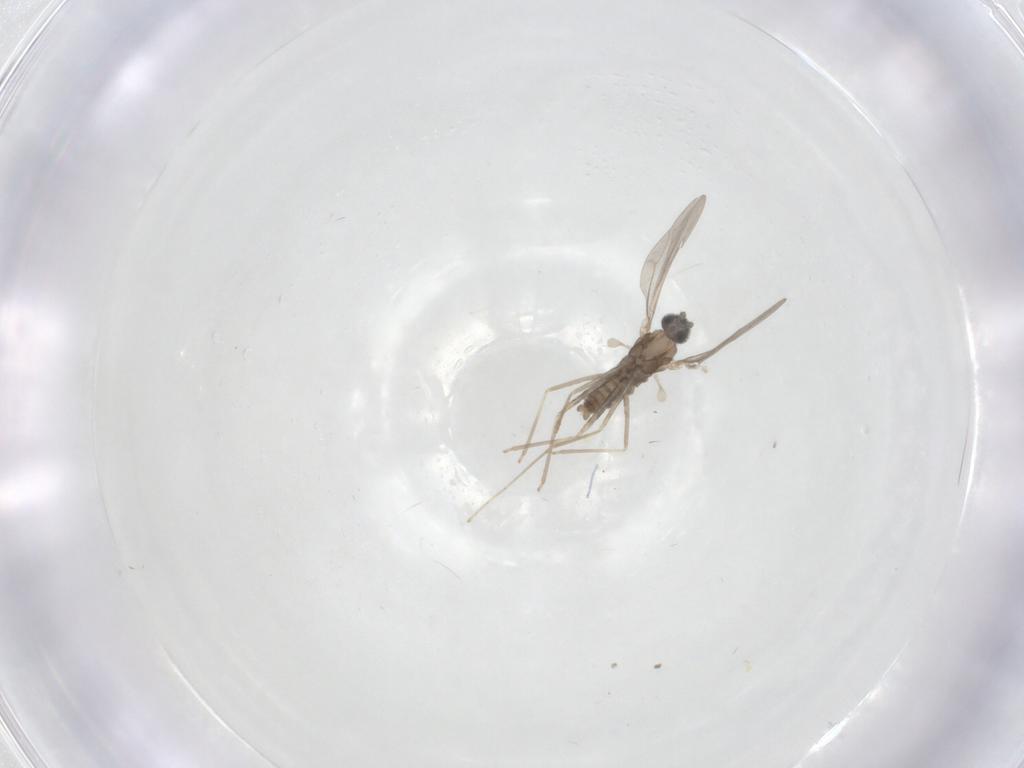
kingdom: Animalia
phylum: Arthropoda
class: Insecta
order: Diptera
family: Cecidomyiidae
